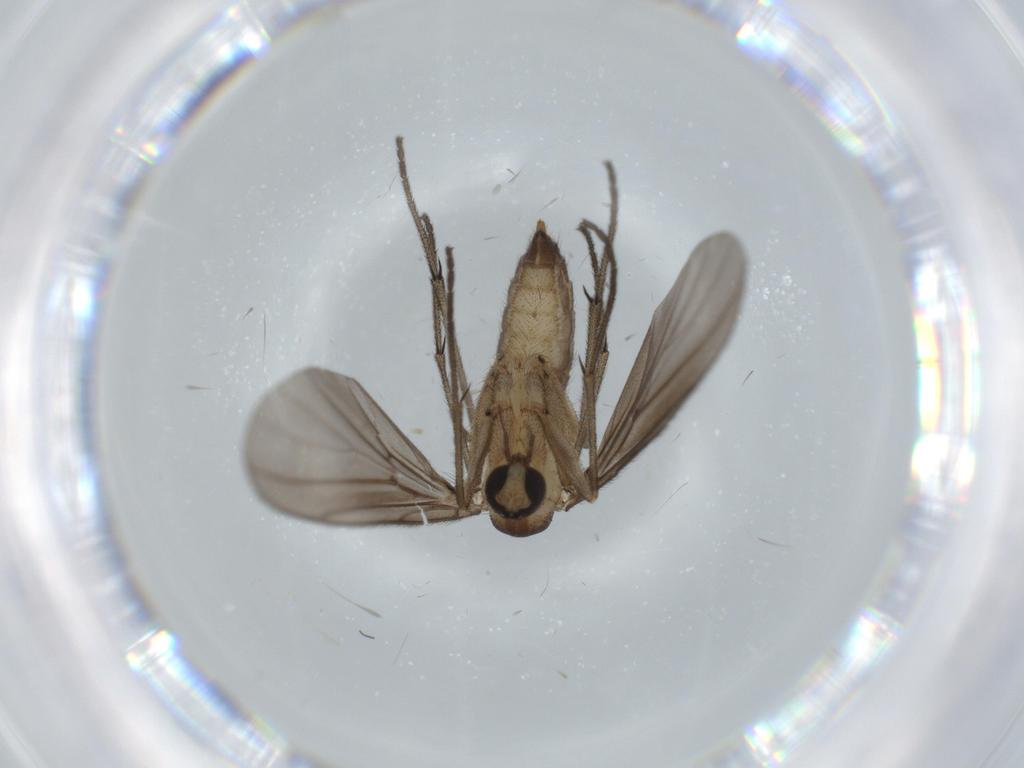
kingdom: Animalia
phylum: Arthropoda
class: Insecta
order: Diptera
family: Drosophilidae
